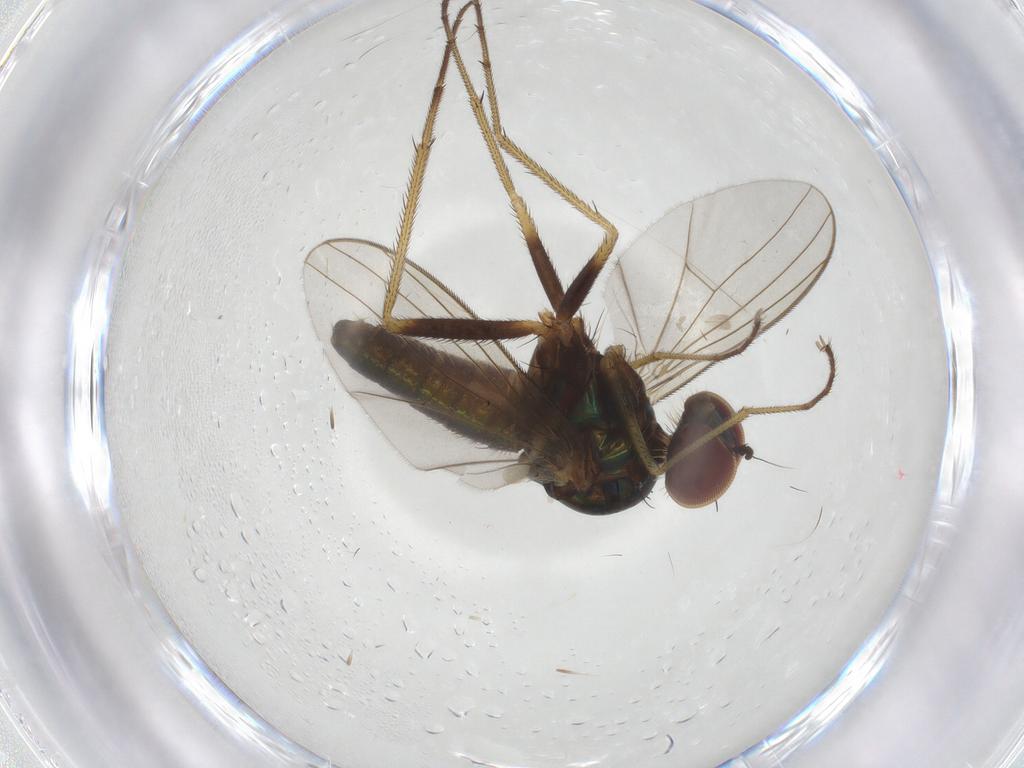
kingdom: Animalia
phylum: Arthropoda
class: Insecta
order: Diptera
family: Dolichopodidae
